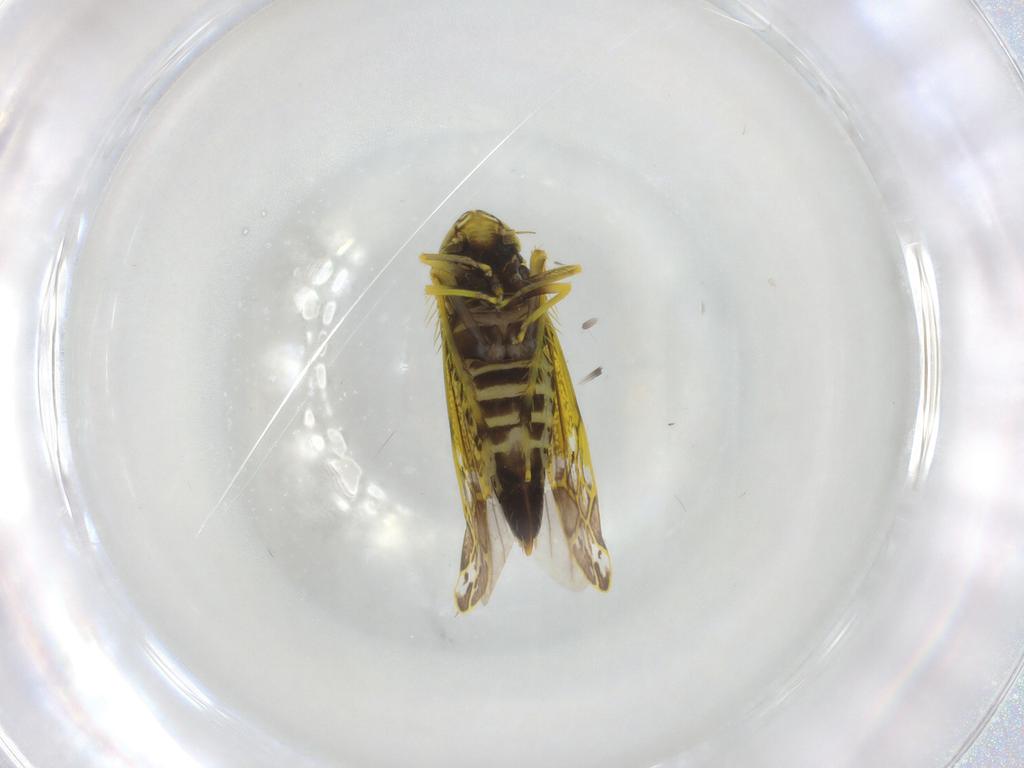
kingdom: Animalia
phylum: Arthropoda
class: Insecta
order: Hemiptera
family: Cicadellidae
